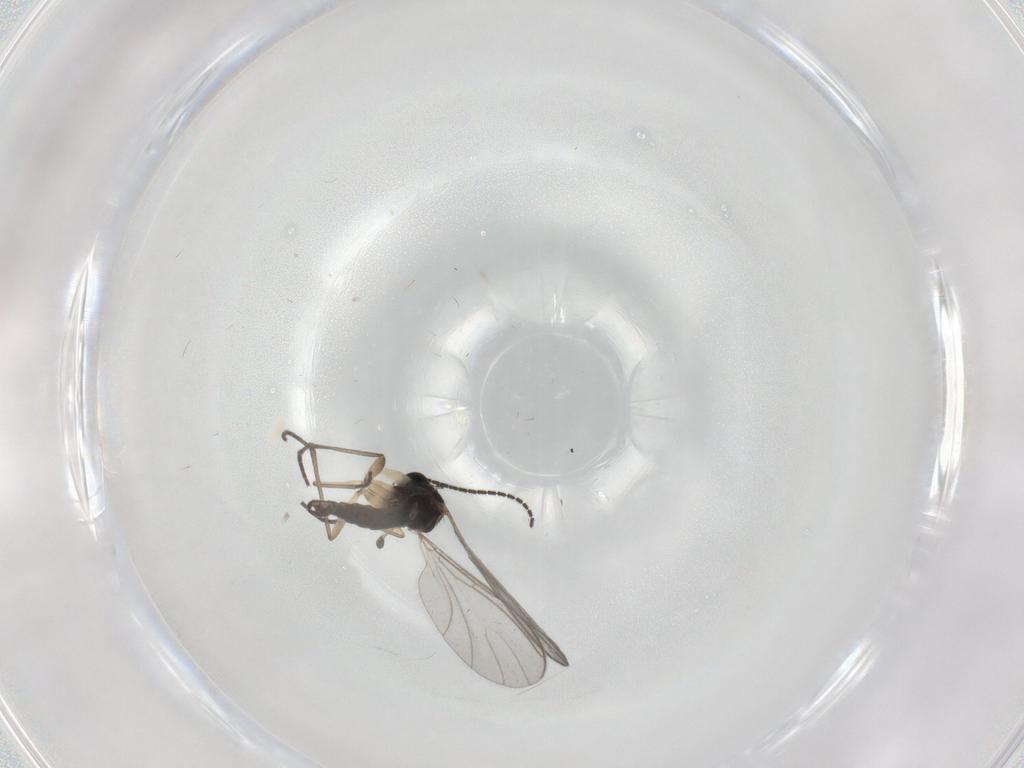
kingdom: Animalia
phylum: Arthropoda
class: Insecta
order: Diptera
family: Sciaridae
